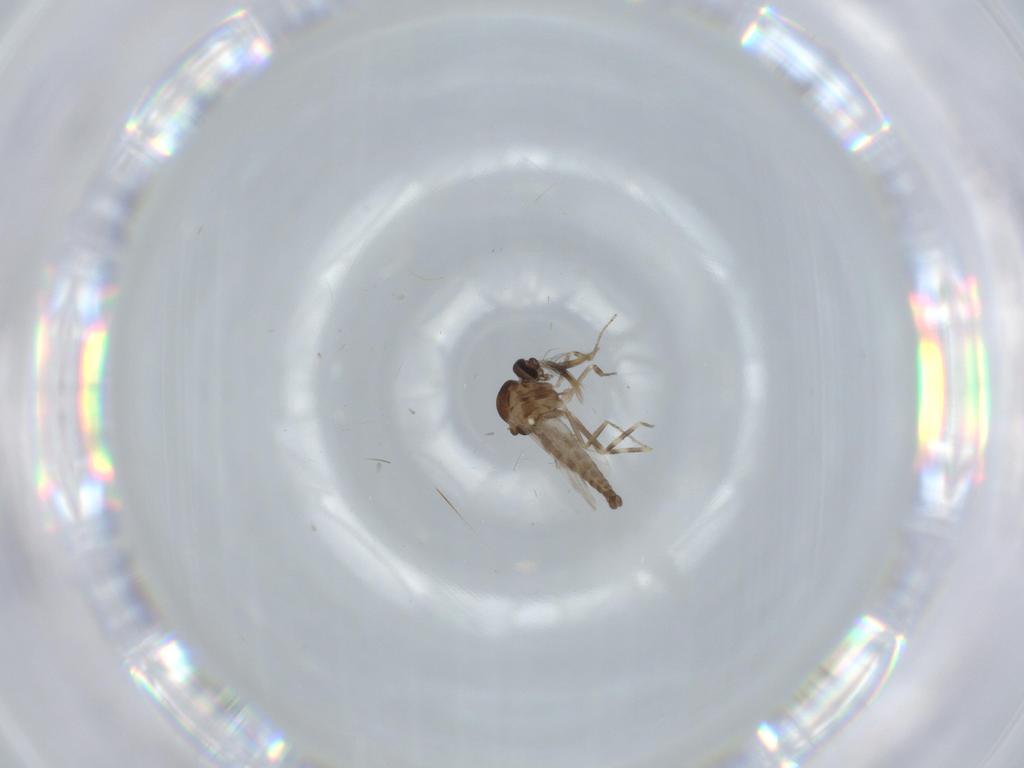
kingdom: Animalia
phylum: Arthropoda
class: Insecta
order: Diptera
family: Ceratopogonidae
